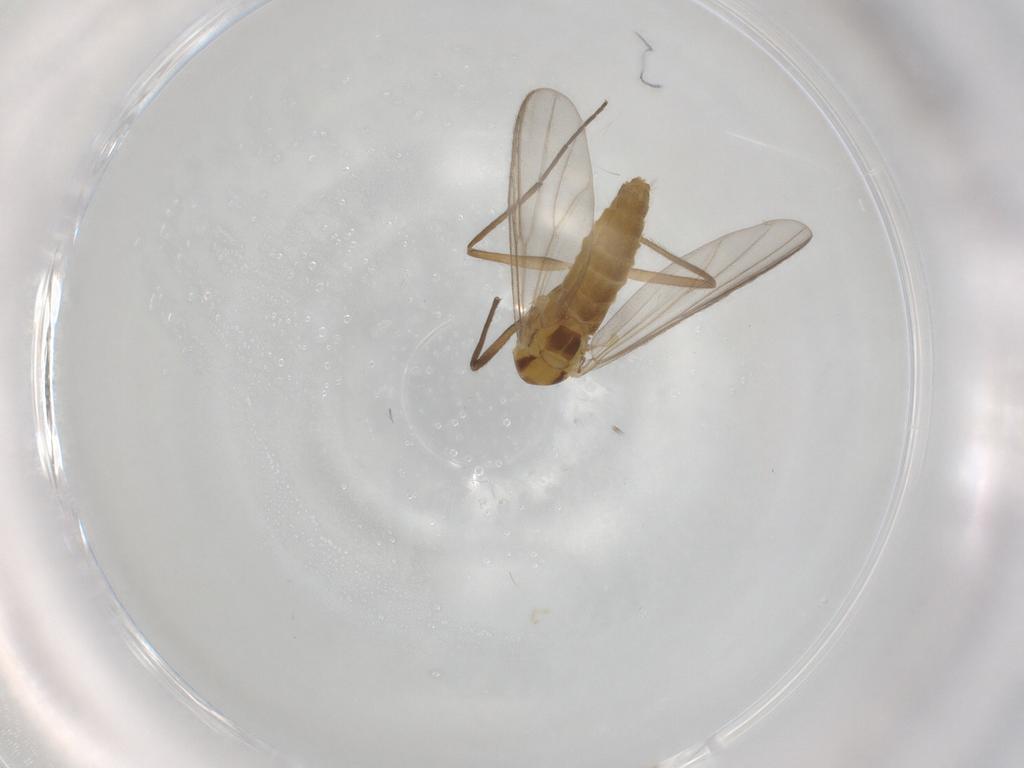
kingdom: Animalia
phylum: Arthropoda
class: Insecta
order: Diptera
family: Chironomidae
